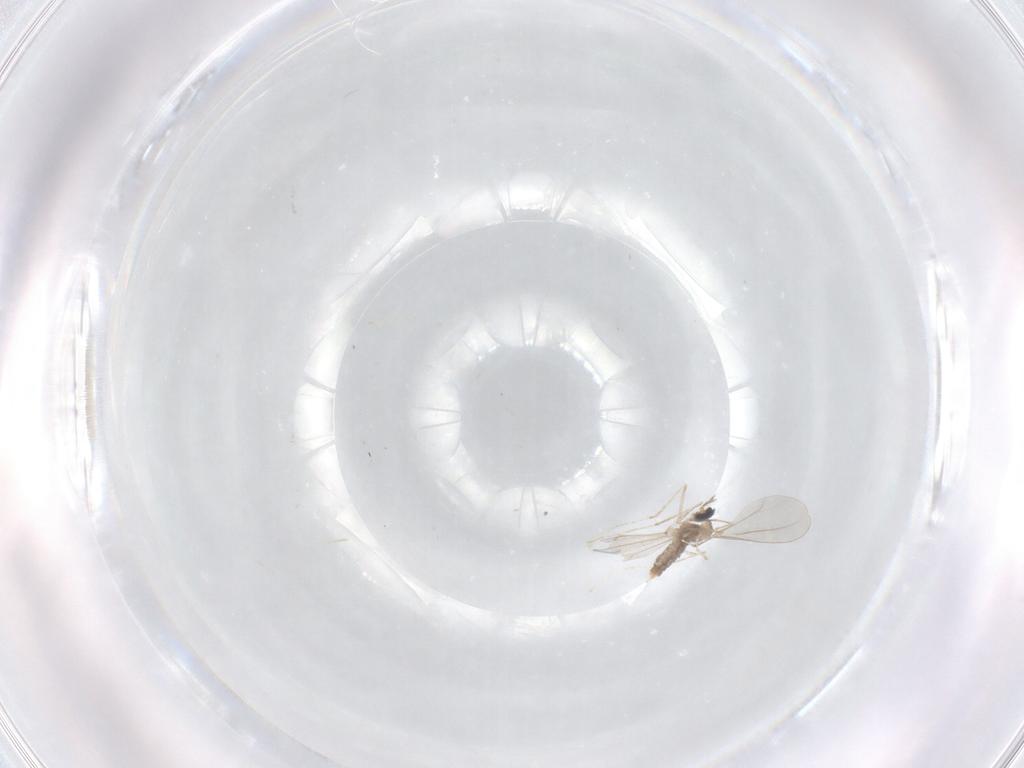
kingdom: Animalia
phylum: Arthropoda
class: Insecta
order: Diptera
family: Cecidomyiidae
